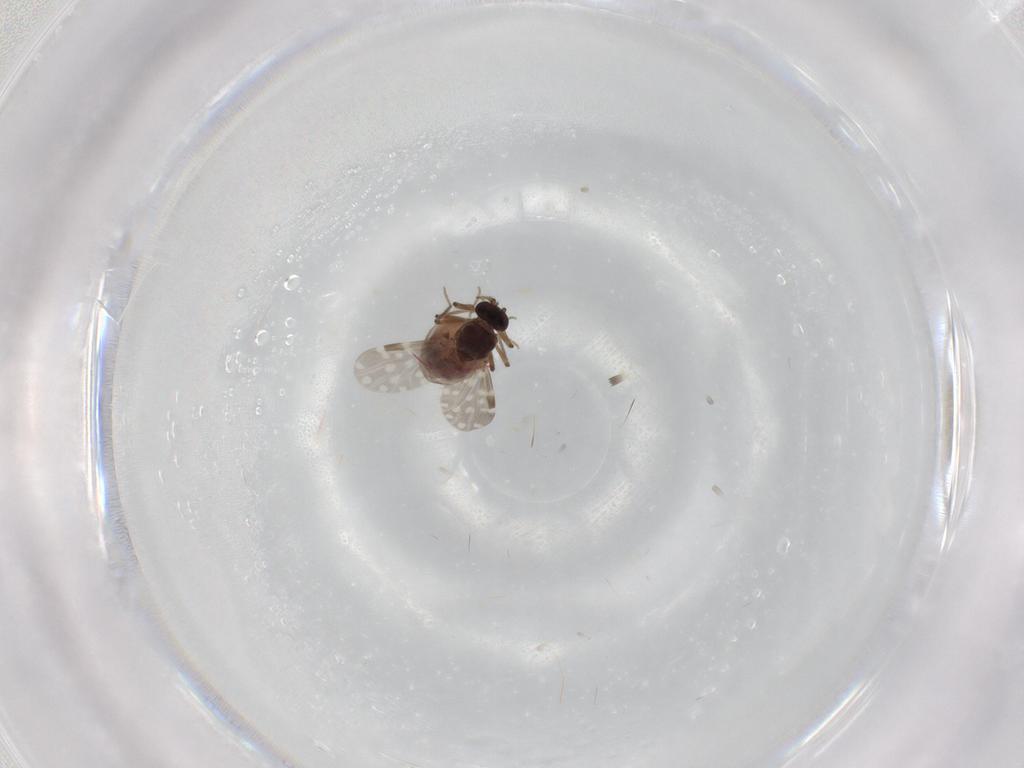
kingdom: Animalia
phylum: Arthropoda
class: Insecta
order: Diptera
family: Ceratopogonidae
